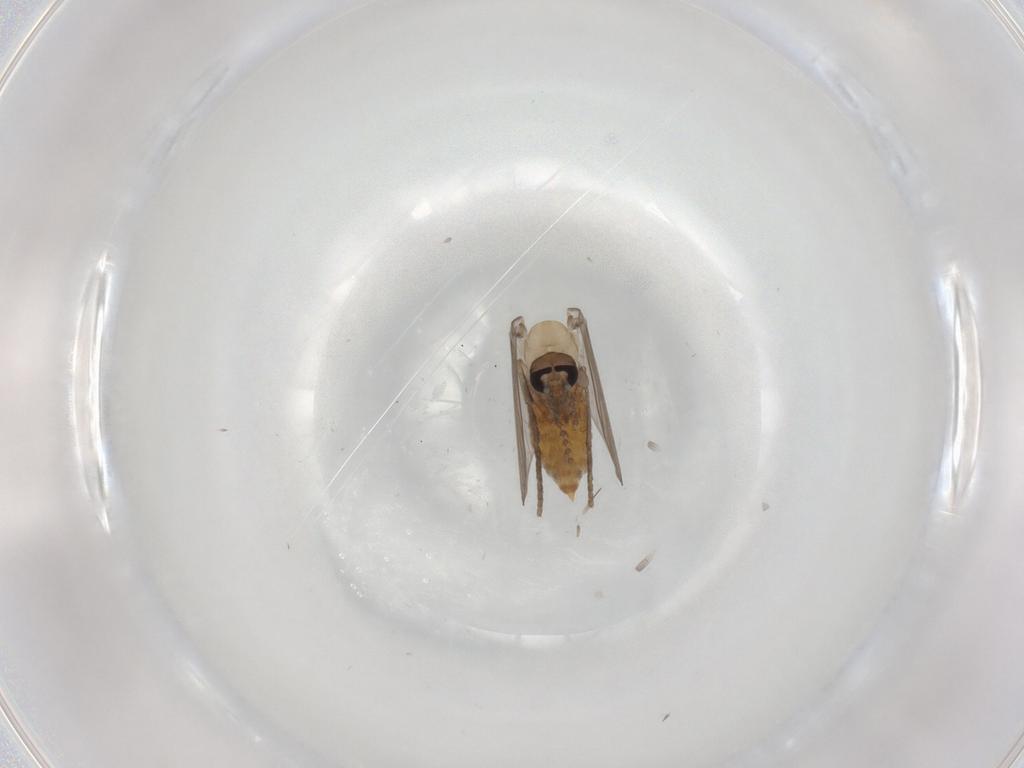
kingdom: Animalia
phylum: Arthropoda
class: Insecta
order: Diptera
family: Psychodidae
